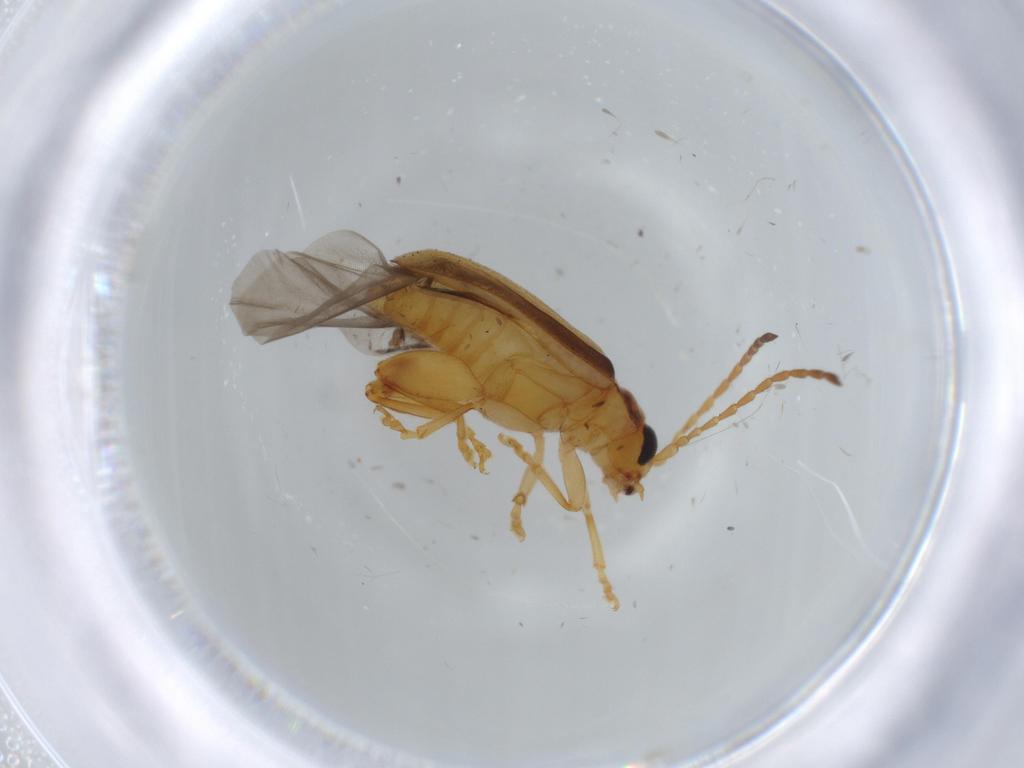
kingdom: Animalia
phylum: Arthropoda
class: Insecta
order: Coleoptera
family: Chrysomelidae
